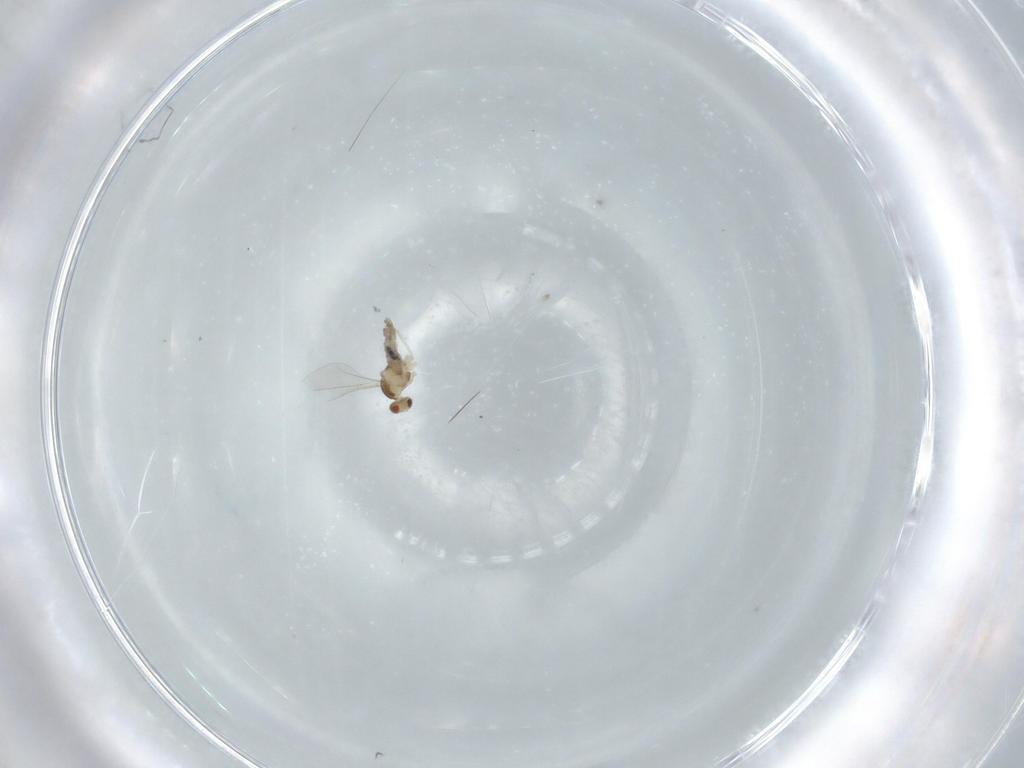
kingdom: Animalia
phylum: Arthropoda
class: Insecta
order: Diptera
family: Cecidomyiidae
